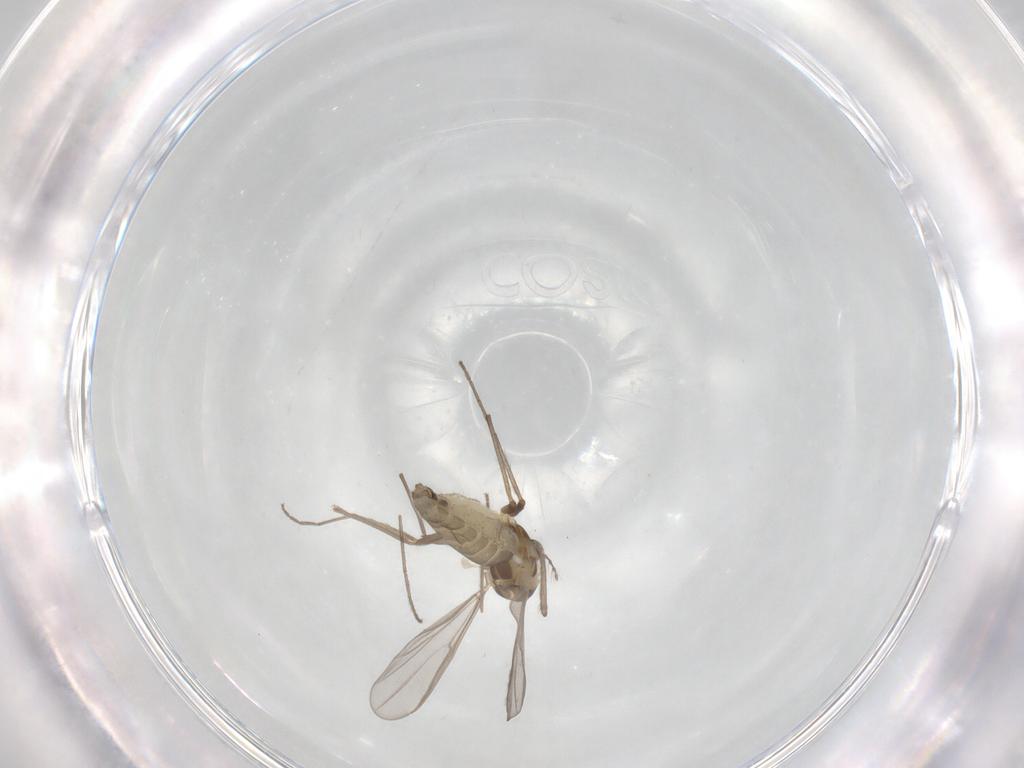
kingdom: Animalia
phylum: Arthropoda
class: Insecta
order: Diptera
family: Chironomidae
